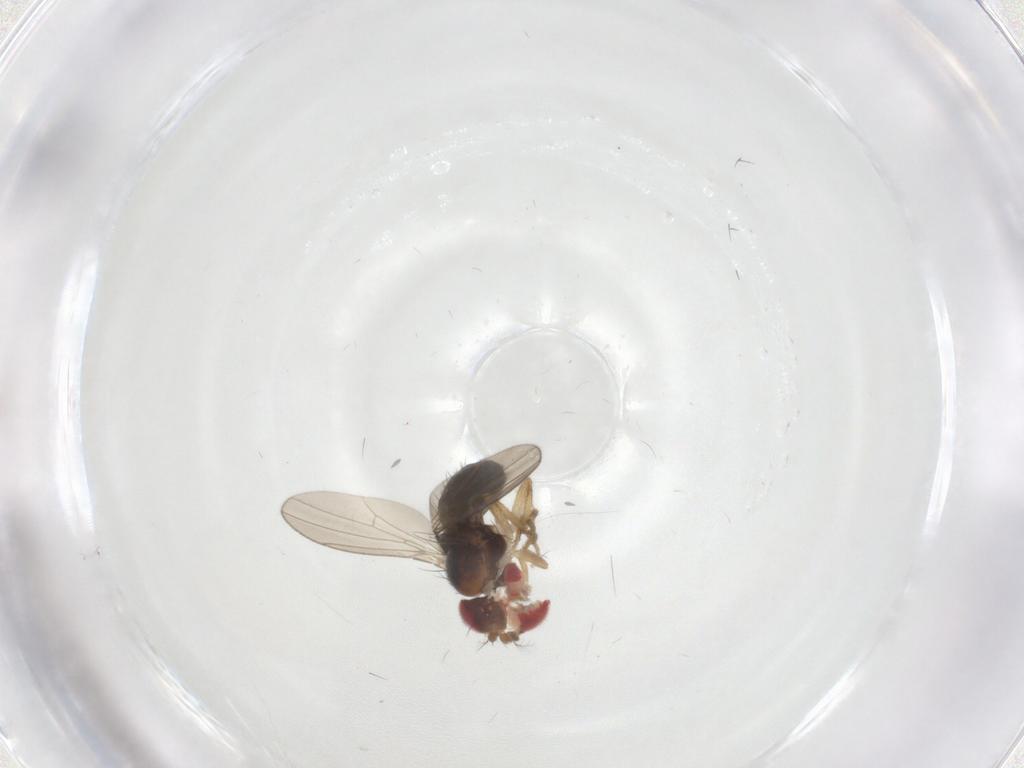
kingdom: Animalia
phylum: Arthropoda
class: Insecta
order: Diptera
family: Drosophilidae
